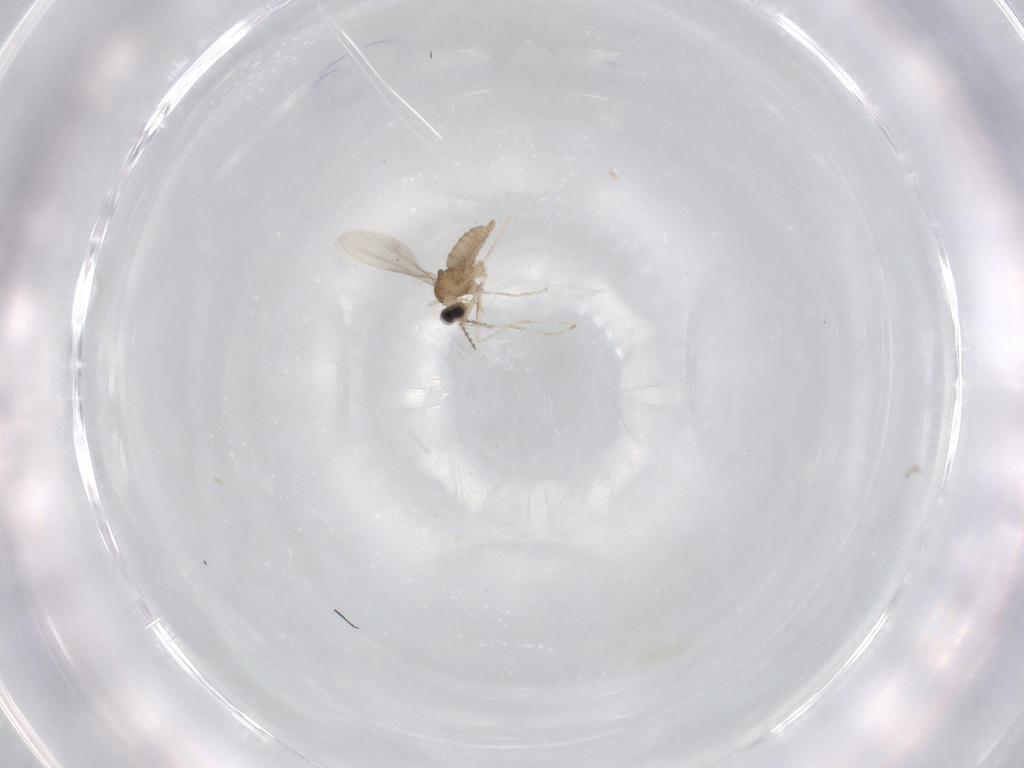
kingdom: Animalia
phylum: Arthropoda
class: Insecta
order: Diptera
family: Cecidomyiidae
